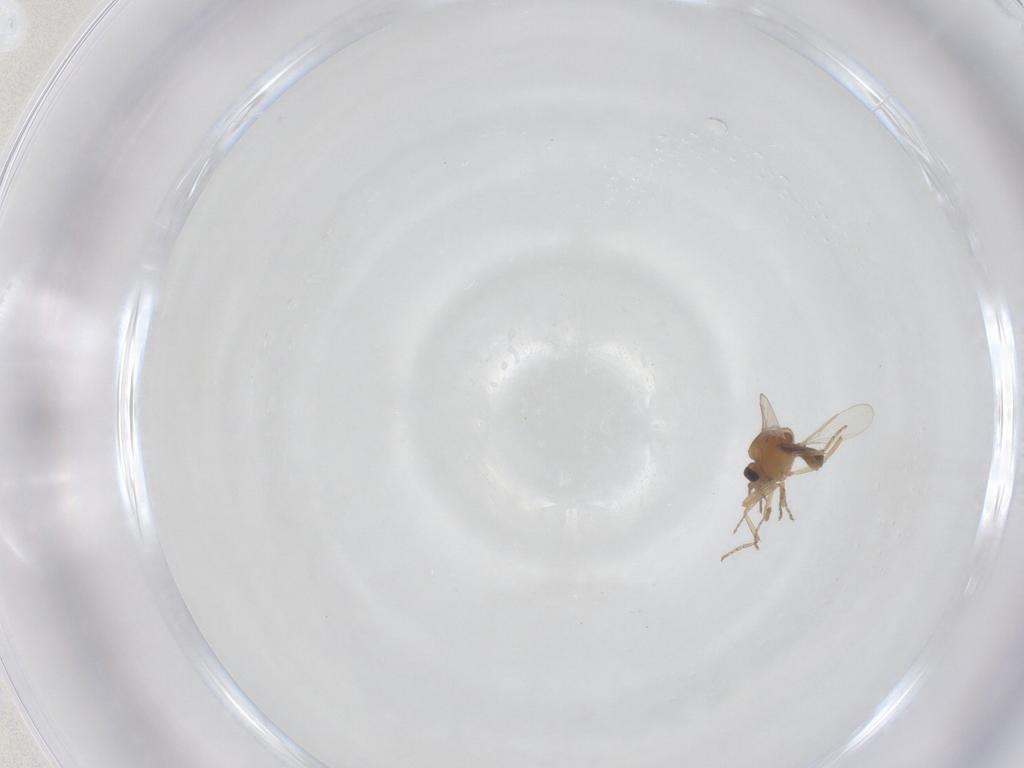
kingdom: Animalia
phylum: Arthropoda
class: Insecta
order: Diptera
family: Ceratopogonidae
